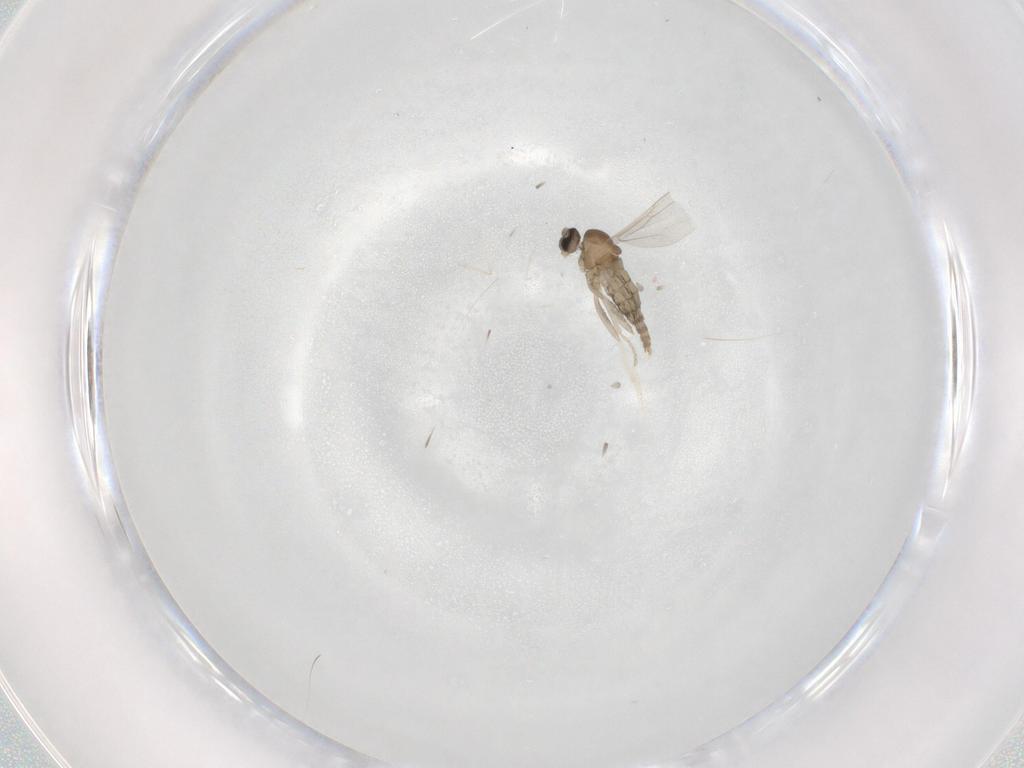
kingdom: Animalia
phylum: Arthropoda
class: Insecta
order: Diptera
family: Cecidomyiidae
